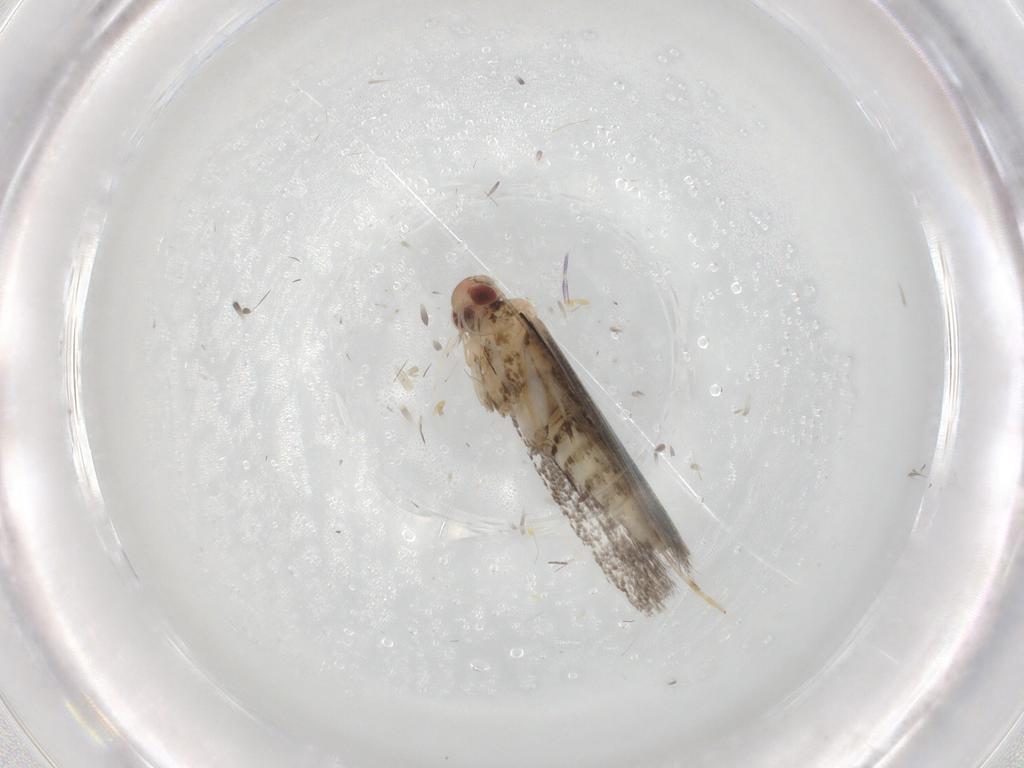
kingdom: Animalia
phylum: Arthropoda
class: Insecta
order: Lepidoptera
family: Gracillariidae
